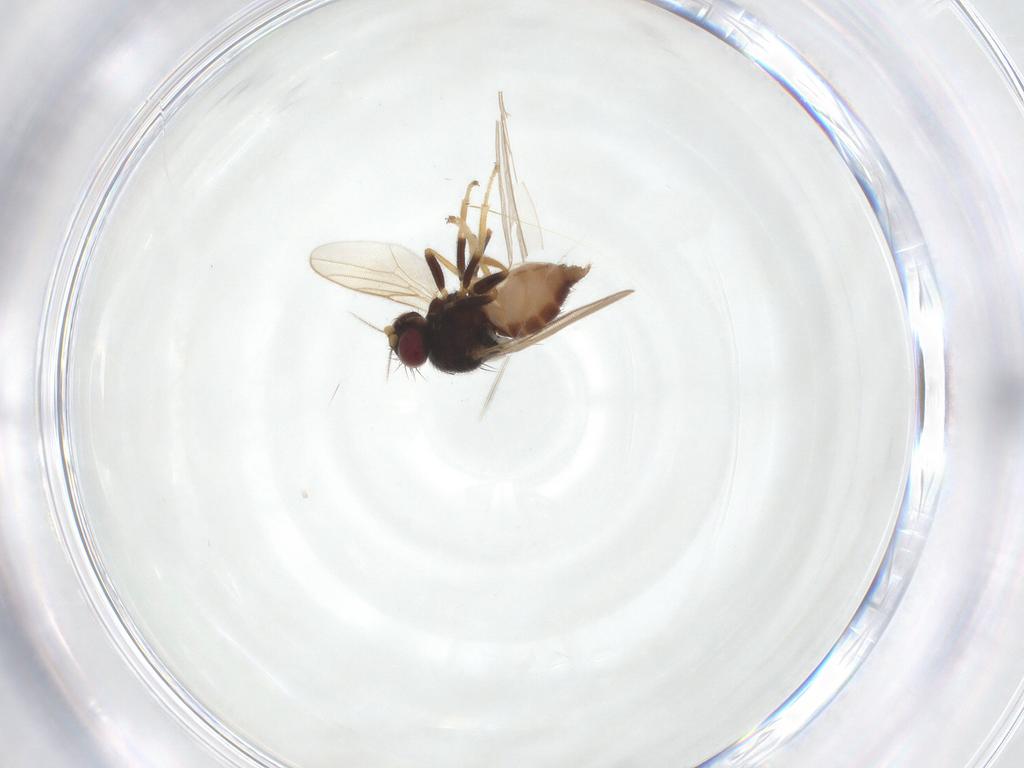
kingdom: Animalia
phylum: Arthropoda
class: Insecta
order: Diptera
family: Chloropidae
